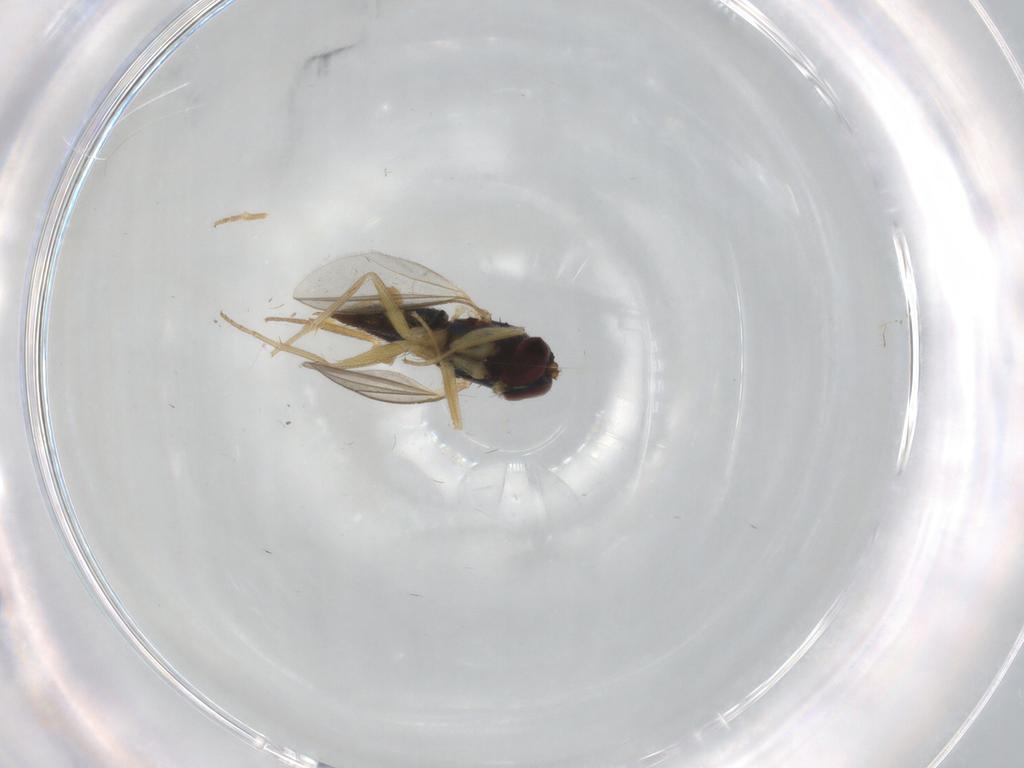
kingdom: Animalia
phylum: Arthropoda
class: Insecta
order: Diptera
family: Dolichopodidae
